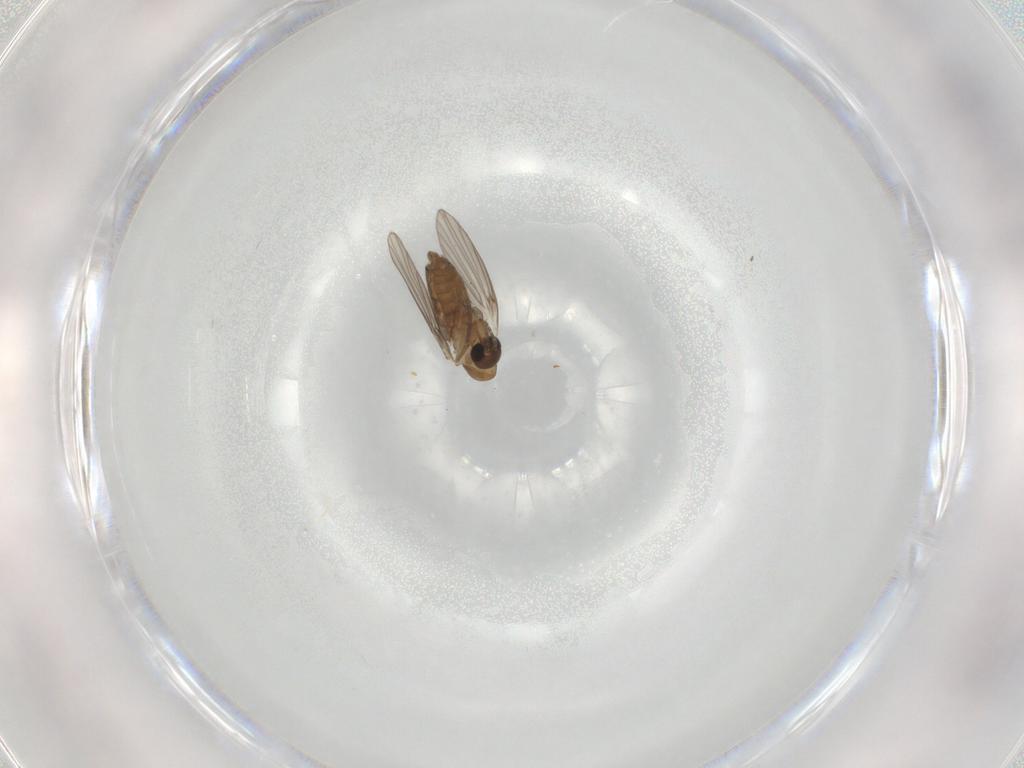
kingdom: Animalia
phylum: Arthropoda
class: Insecta
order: Diptera
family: Psychodidae
